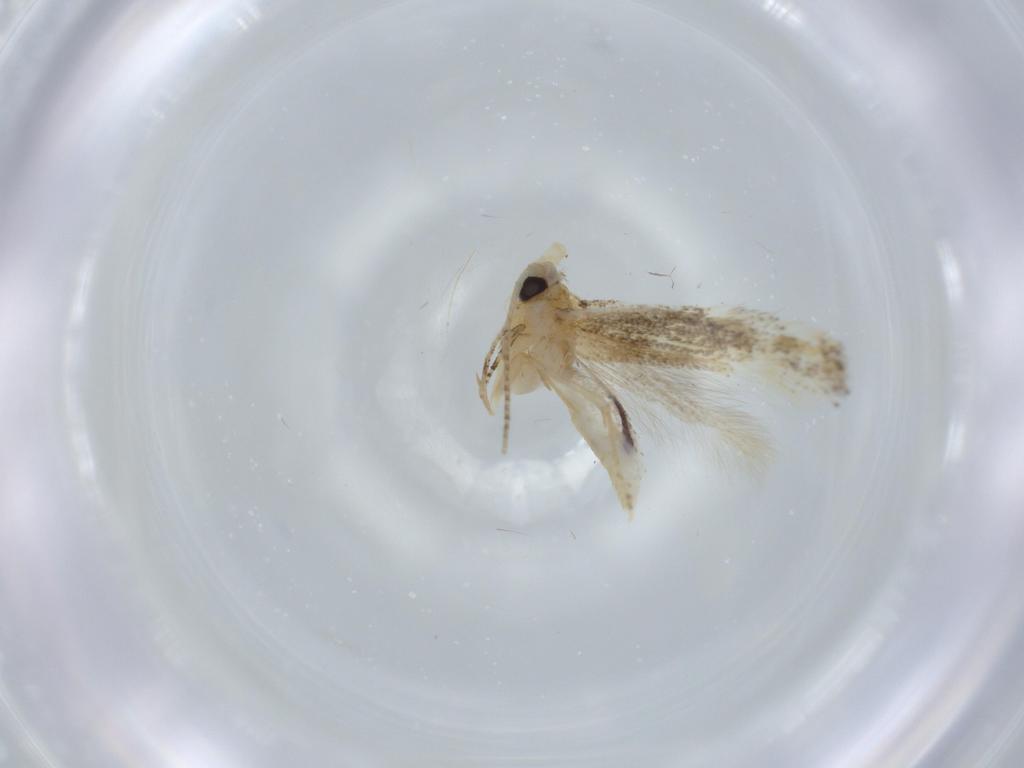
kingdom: Animalia
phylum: Arthropoda
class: Insecta
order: Lepidoptera
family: Bucculatricidae
